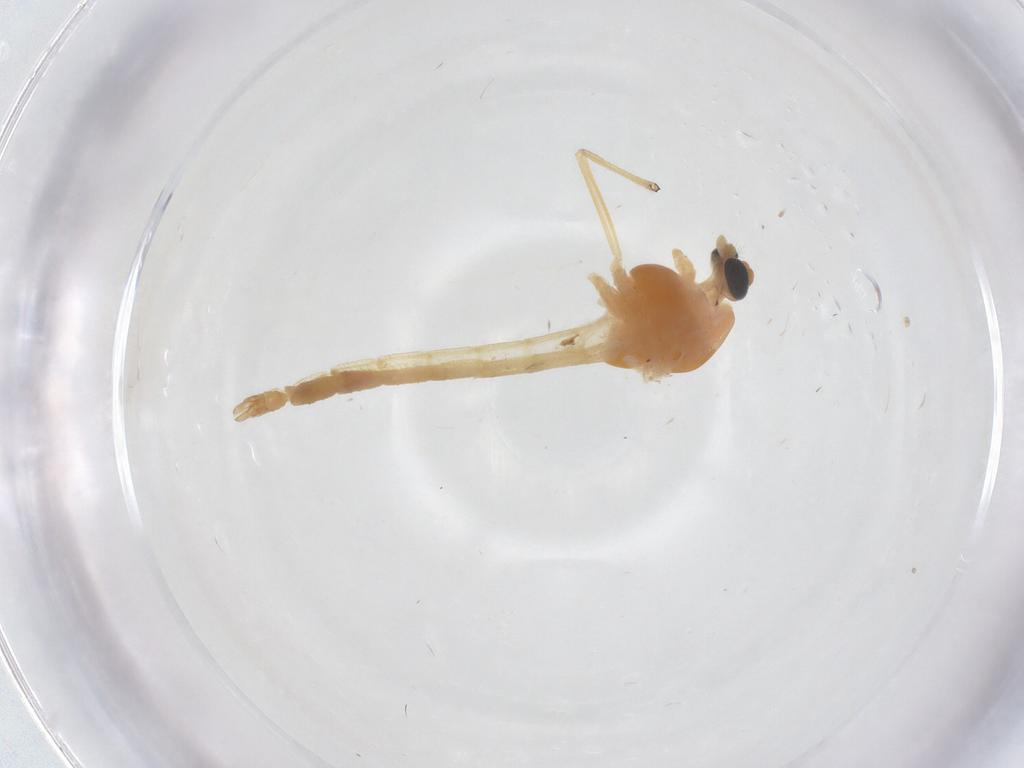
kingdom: Animalia
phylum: Arthropoda
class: Insecta
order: Diptera
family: Chironomidae
